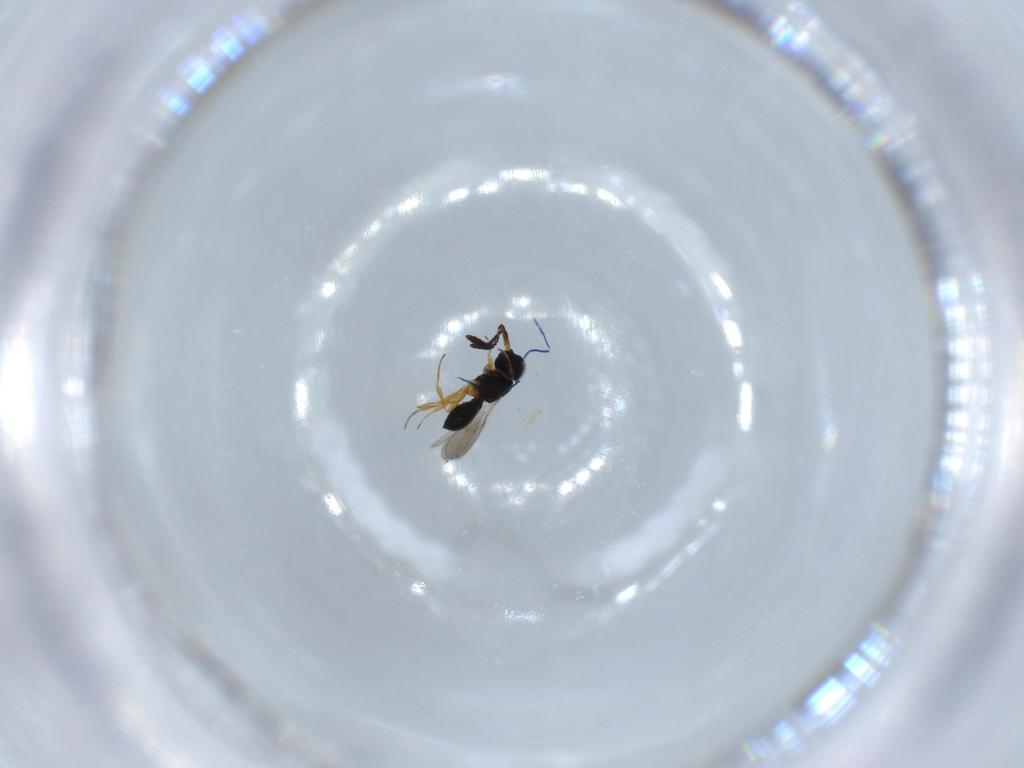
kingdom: Animalia
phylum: Arthropoda
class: Insecta
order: Hymenoptera
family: Scelionidae
